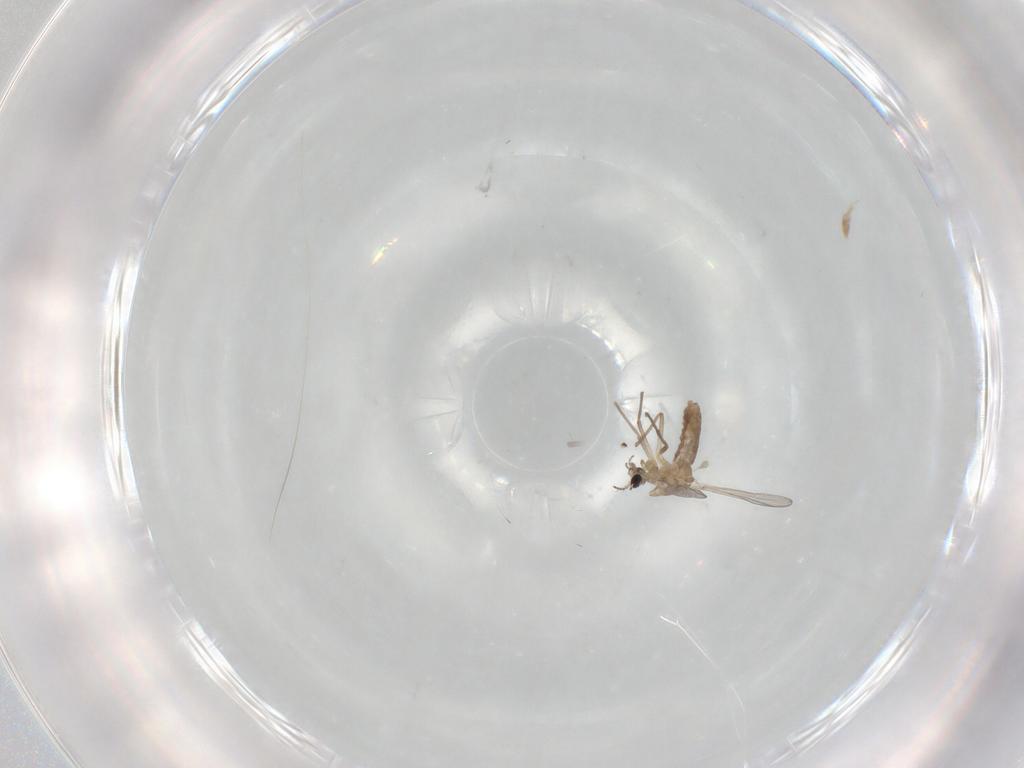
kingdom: Animalia
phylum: Arthropoda
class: Insecta
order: Diptera
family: Chironomidae
